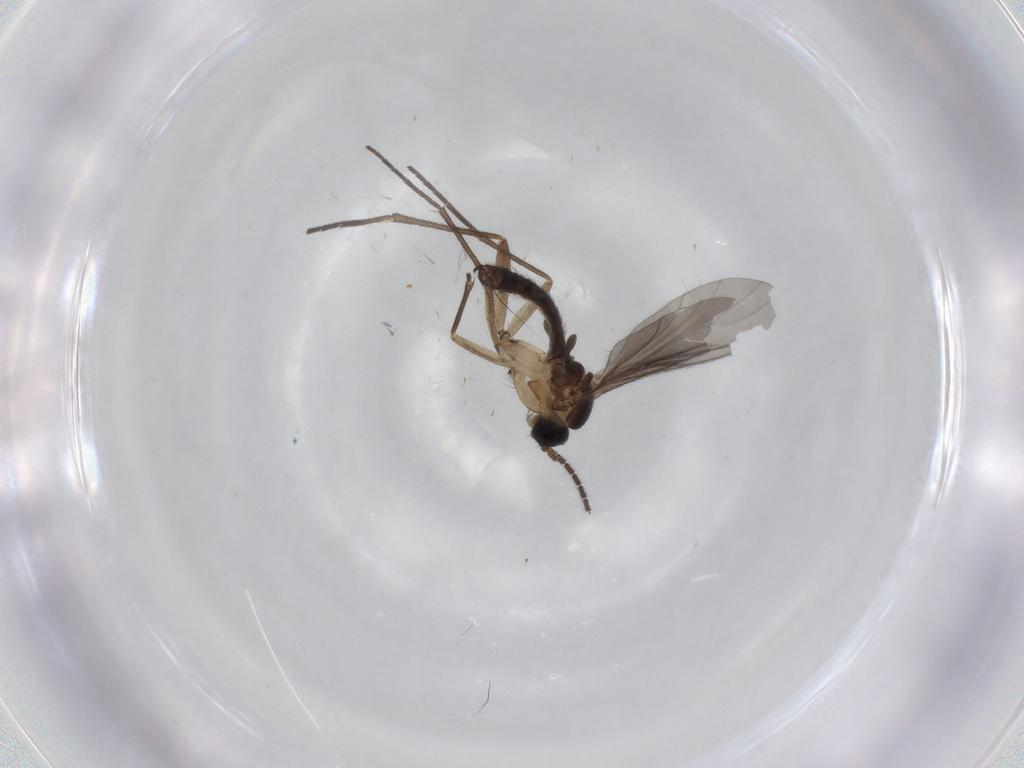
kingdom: Animalia
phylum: Arthropoda
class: Insecta
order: Diptera
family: Sciaridae
